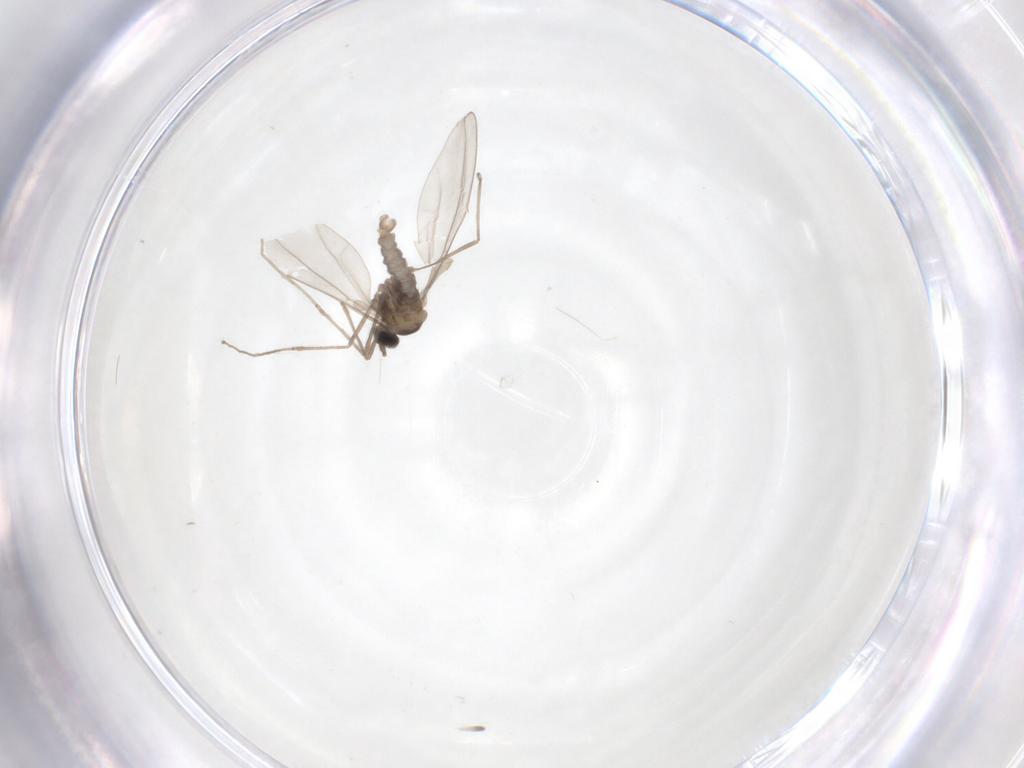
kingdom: Animalia
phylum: Arthropoda
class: Insecta
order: Diptera
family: Cecidomyiidae
